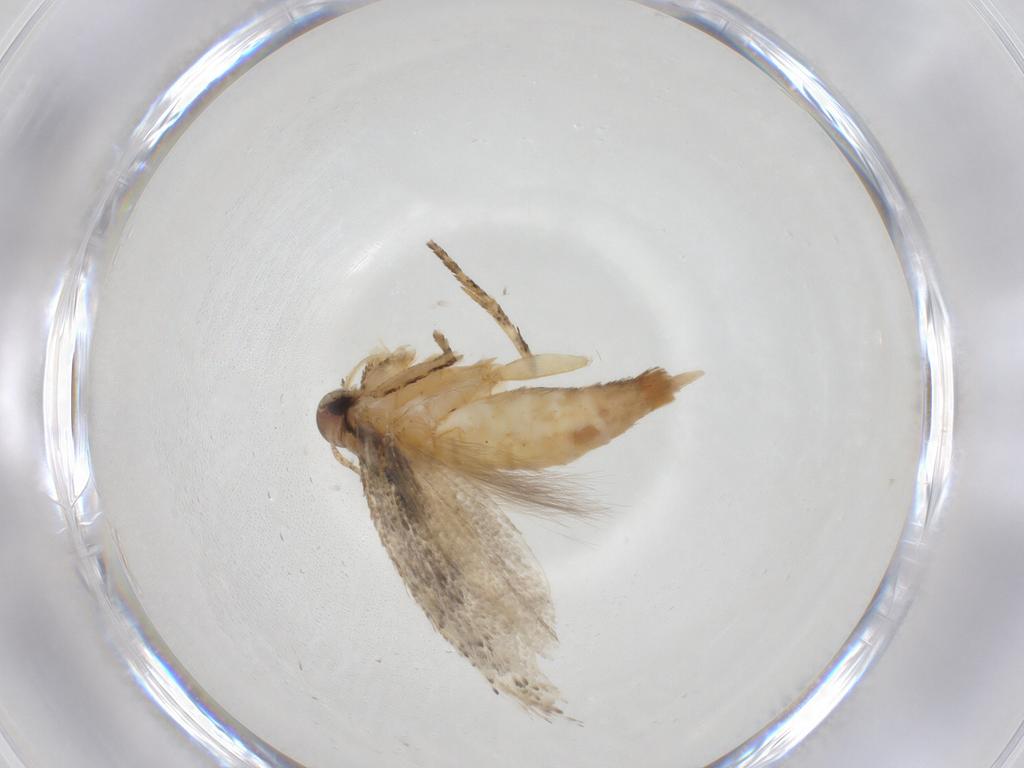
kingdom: Animalia
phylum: Arthropoda
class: Insecta
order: Lepidoptera
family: Gelechiidae
